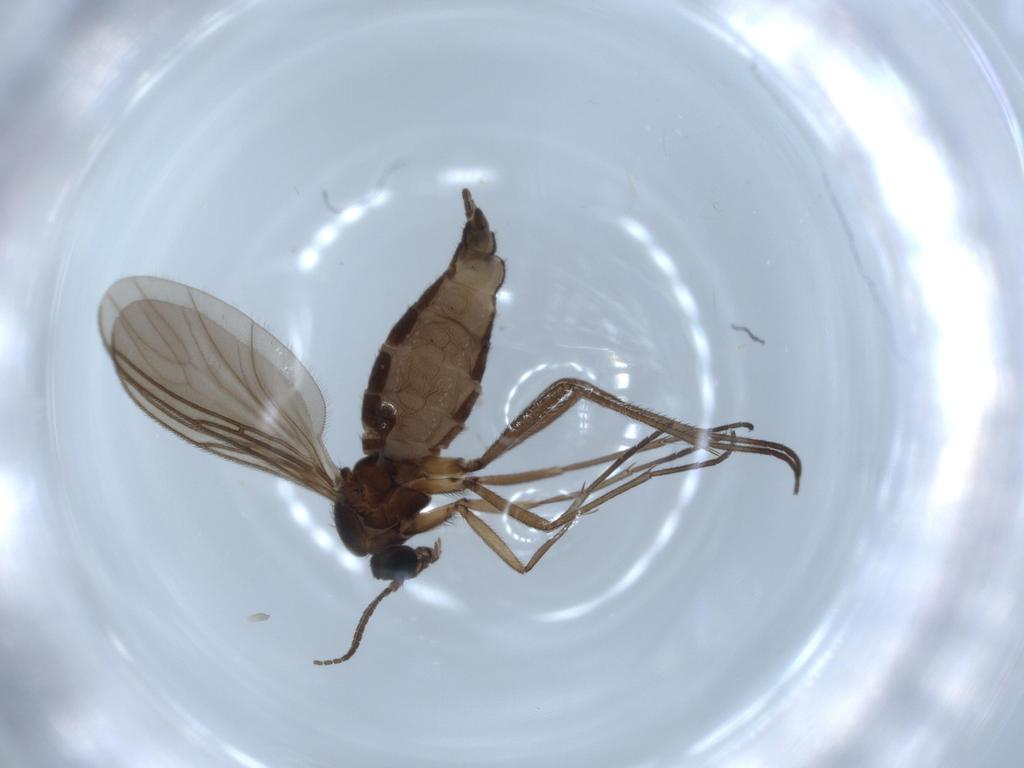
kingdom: Animalia
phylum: Arthropoda
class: Insecta
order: Diptera
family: Sciaridae
